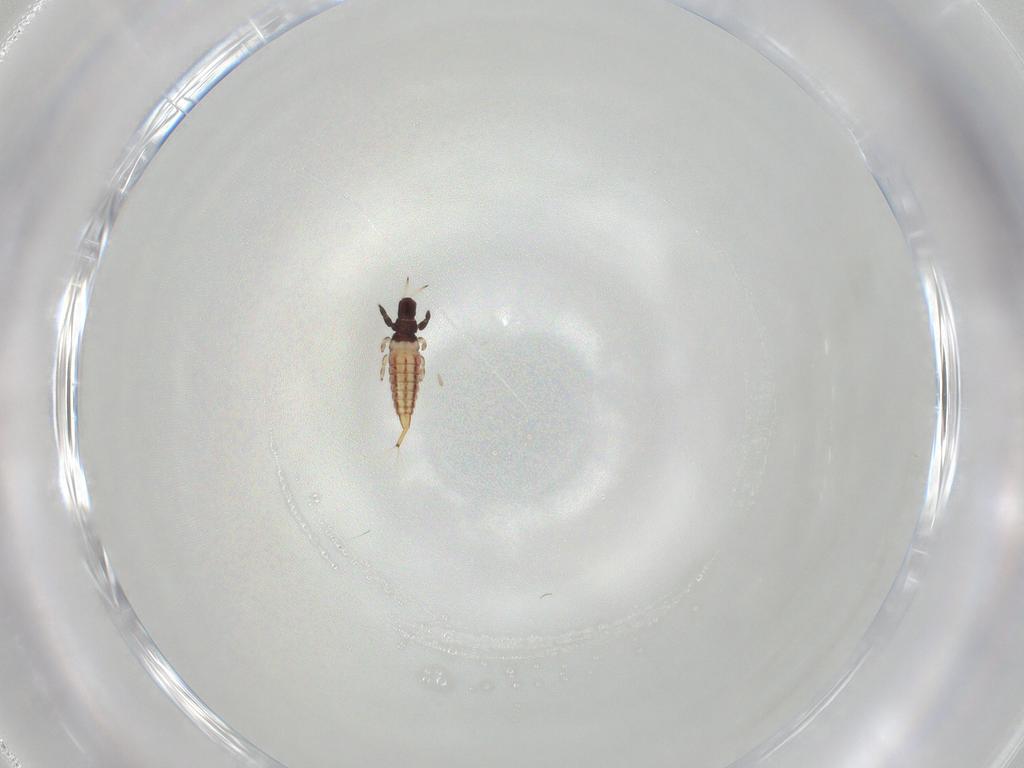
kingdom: Animalia
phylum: Arthropoda
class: Insecta
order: Thysanoptera
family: Phlaeothripidae
